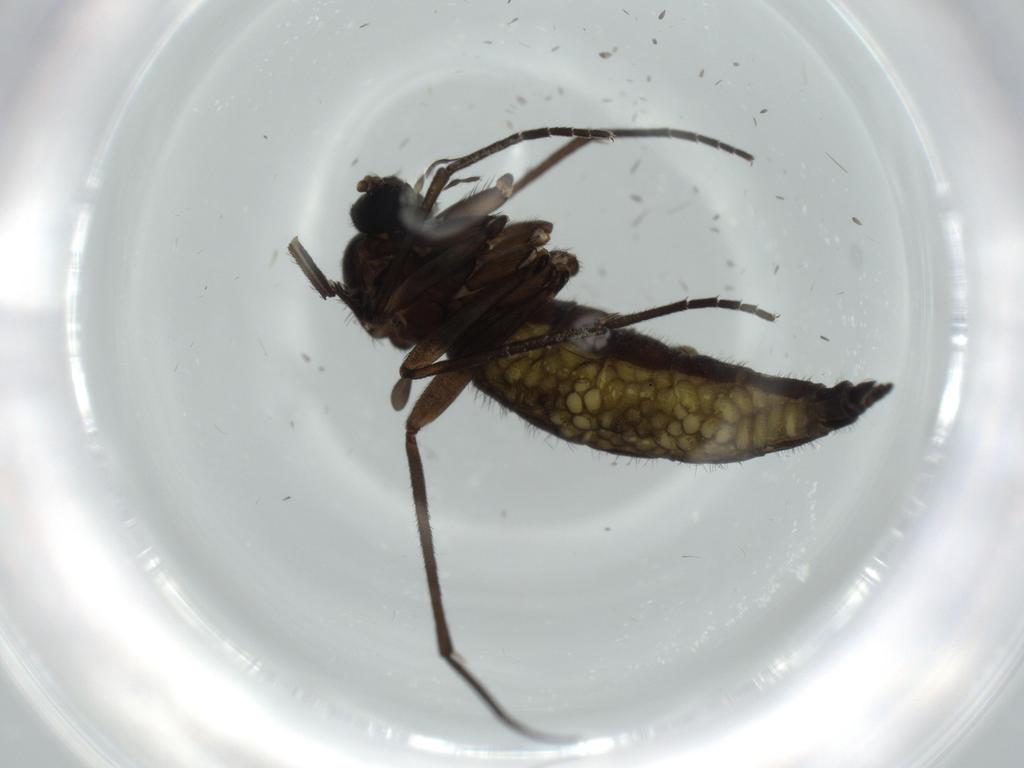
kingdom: Animalia
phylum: Arthropoda
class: Insecta
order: Diptera
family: Sciaridae
